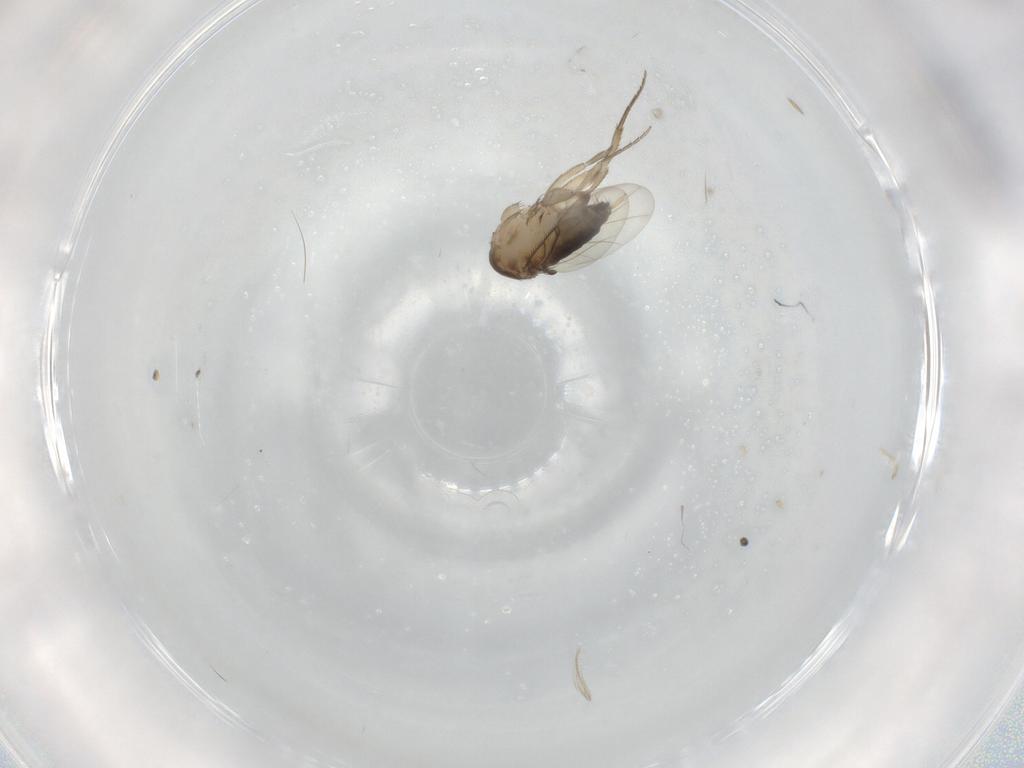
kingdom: Animalia
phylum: Arthropoda
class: Insecta
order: Diptera
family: Phoridae
